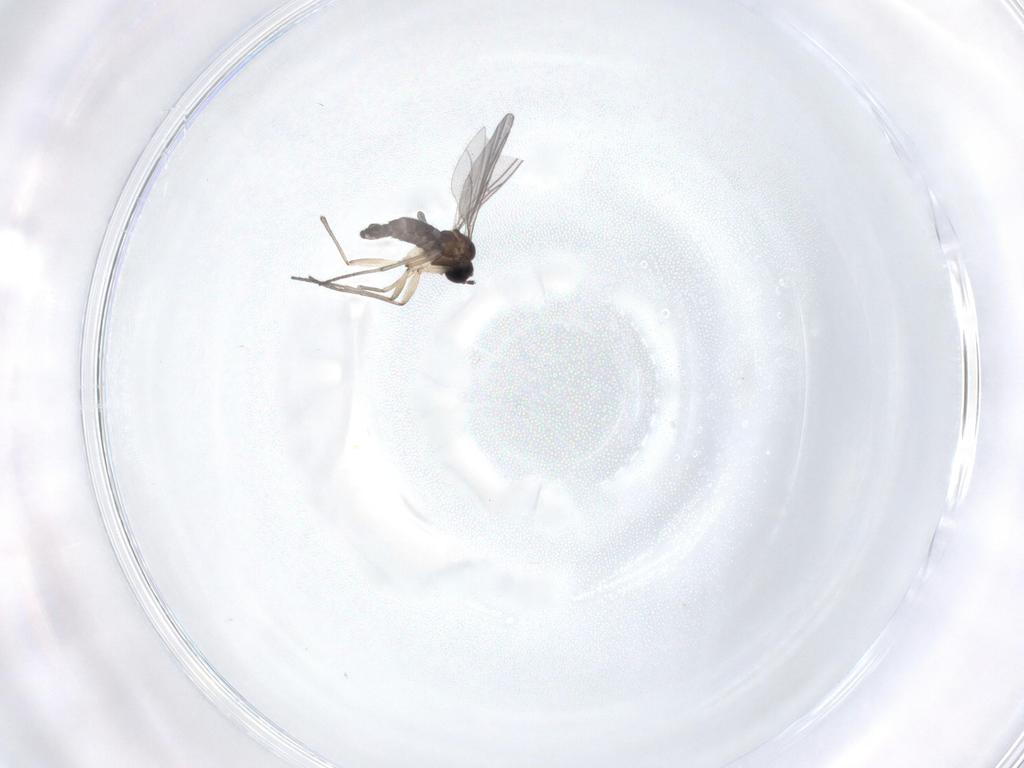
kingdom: Animalia
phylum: Arthropoda
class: Insecta
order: Diptera
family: Sciaridae
